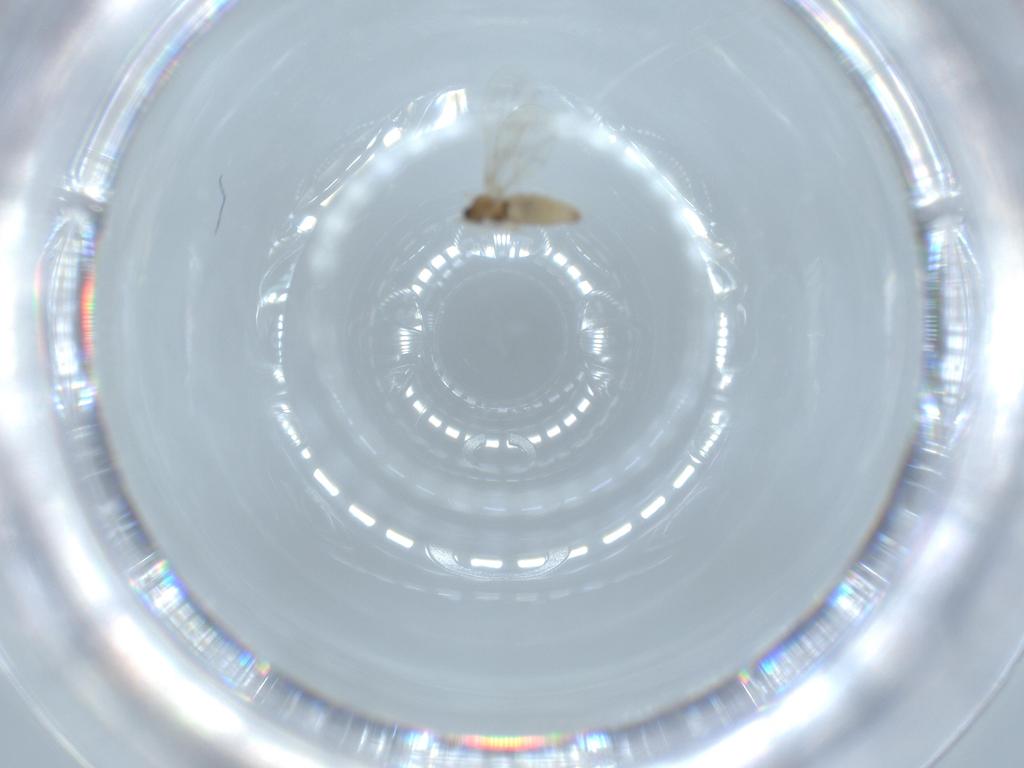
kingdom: Animalia
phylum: Arthropoda
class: Insecta
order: Diptera
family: Cecidomyiidae
